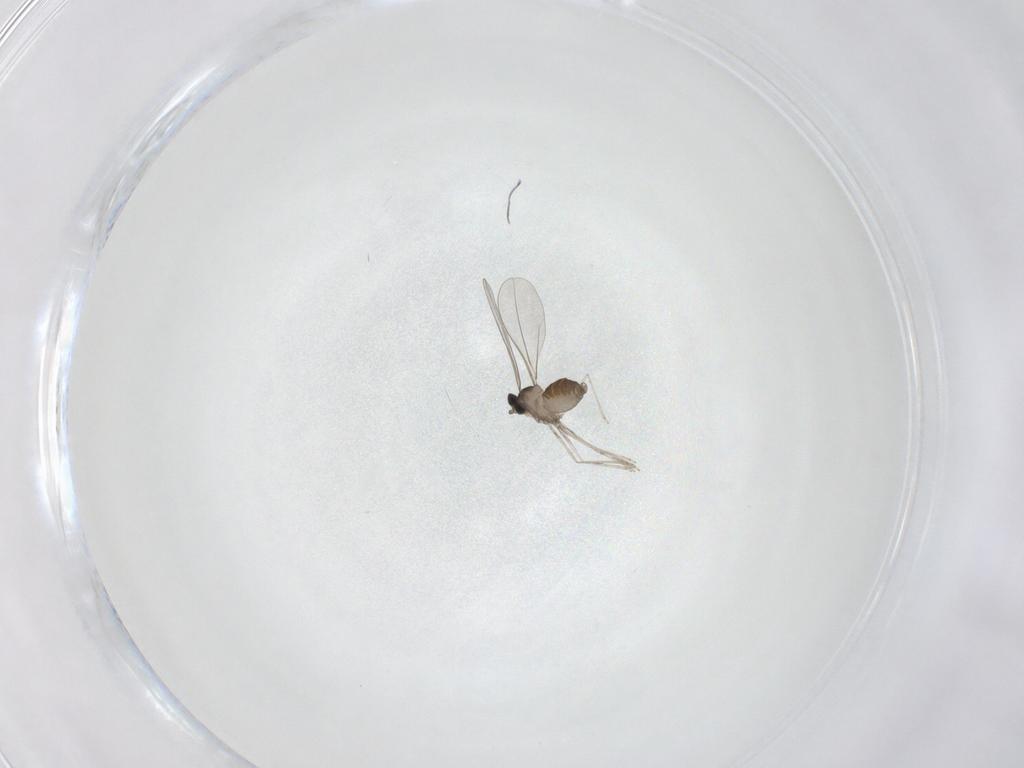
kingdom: Animalia
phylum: Arthropoda
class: Insecta
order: Diptera
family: Cecidomyiidae
